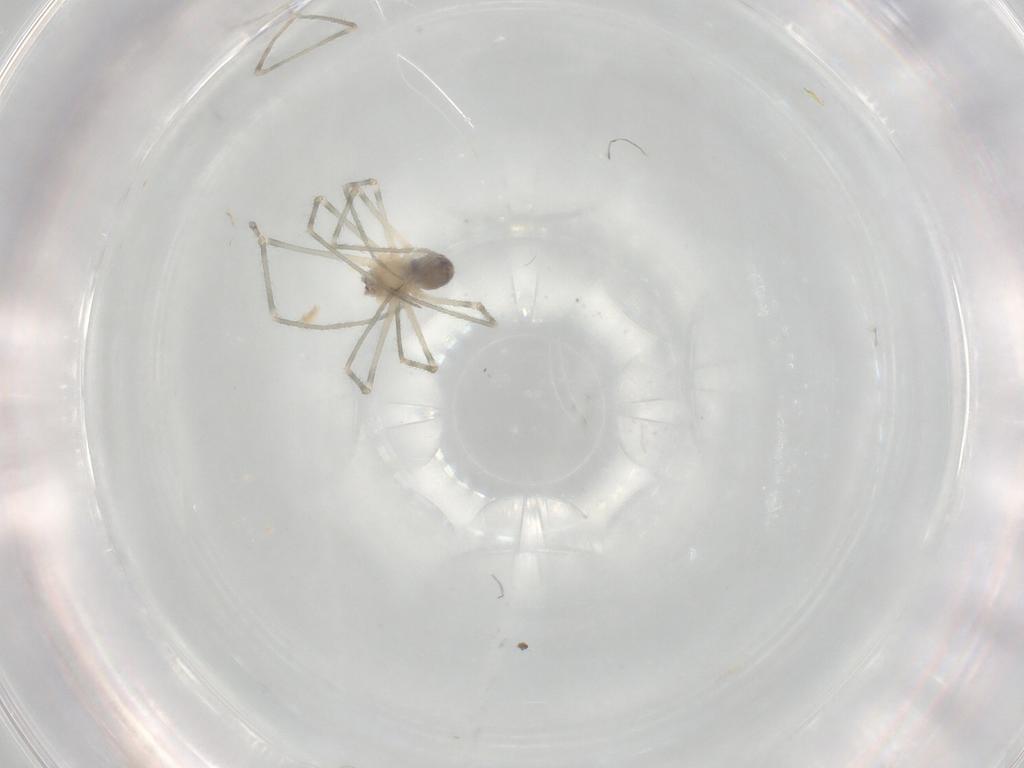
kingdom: Animalia
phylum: Arthropoda
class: Arachnida
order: Araneae
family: Pholcidae
